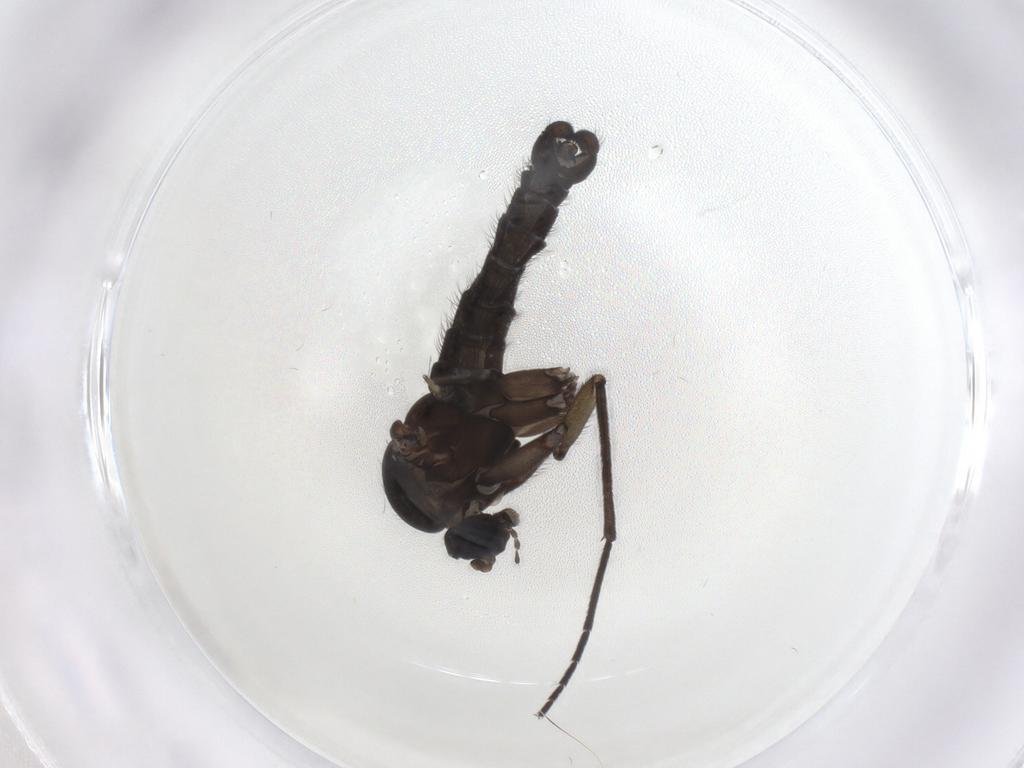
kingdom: Animalia
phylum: Arthropoda
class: Insecta
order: Diptera
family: Sciaridae
